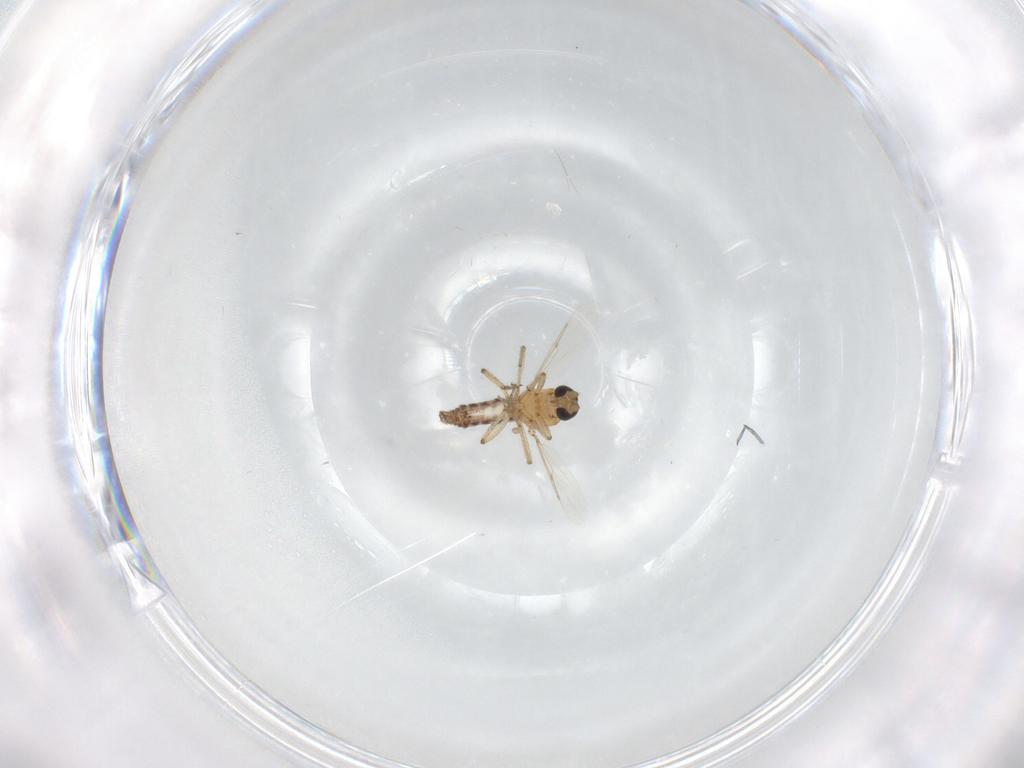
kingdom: Animalia
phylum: Arthropoda
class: Insecta
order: Diptera
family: Ceratopogonidae
